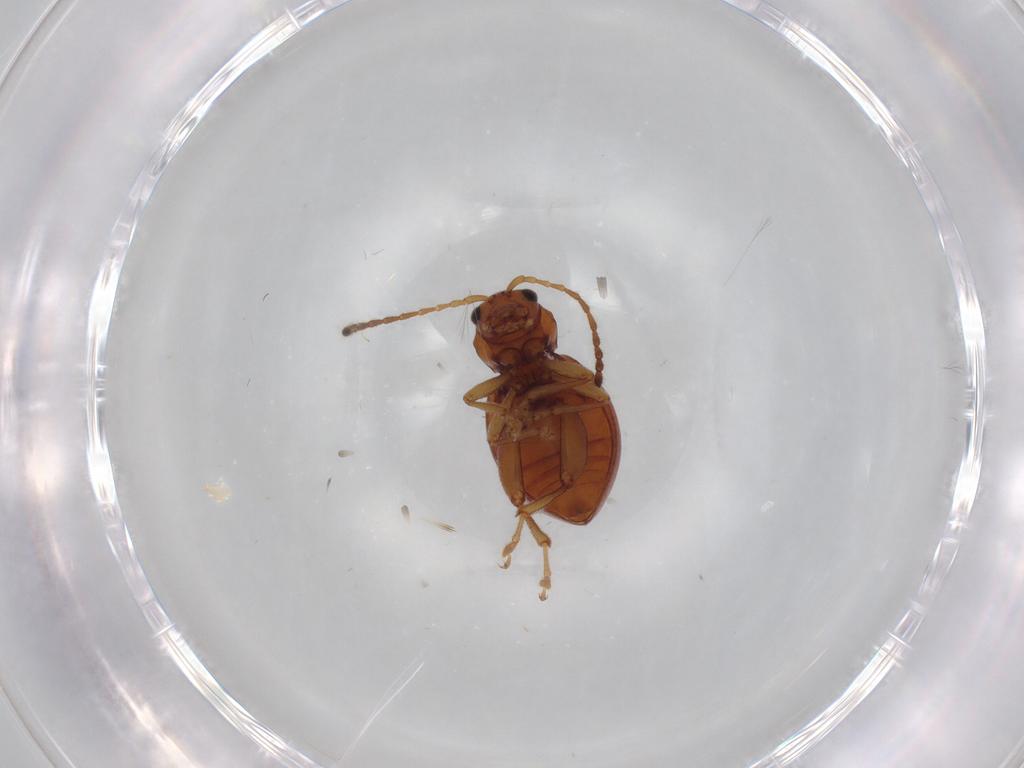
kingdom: Animalia
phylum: Arthropoda
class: Insecta
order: Coleoptera
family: Chrysomelidae
